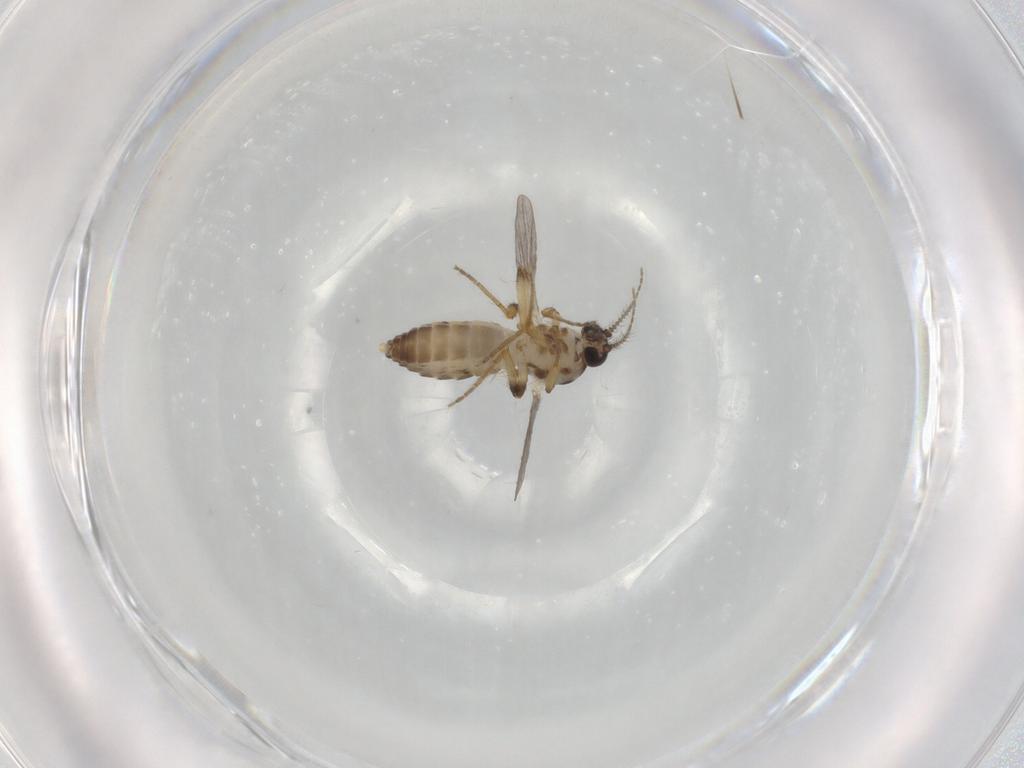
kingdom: Animalia
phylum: Arthropoda
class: Insecta
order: Diptera
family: Ceratopogonidae
